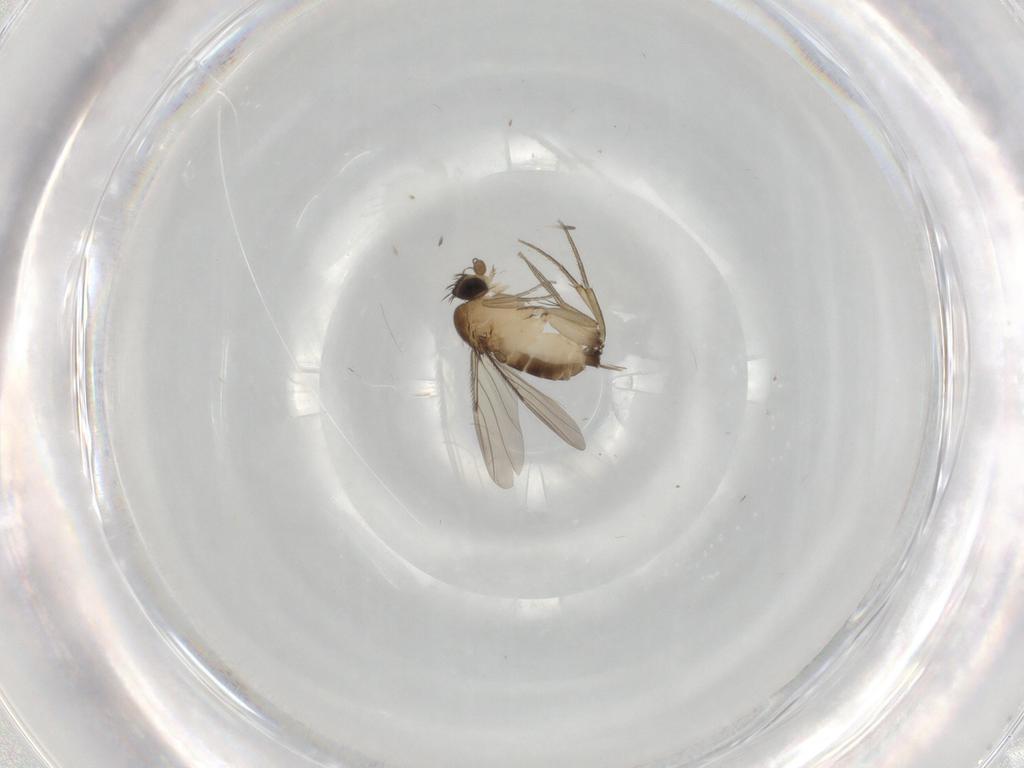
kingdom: Animalia
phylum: Arthropoda
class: Insecta
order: Diptera
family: Phoridae
